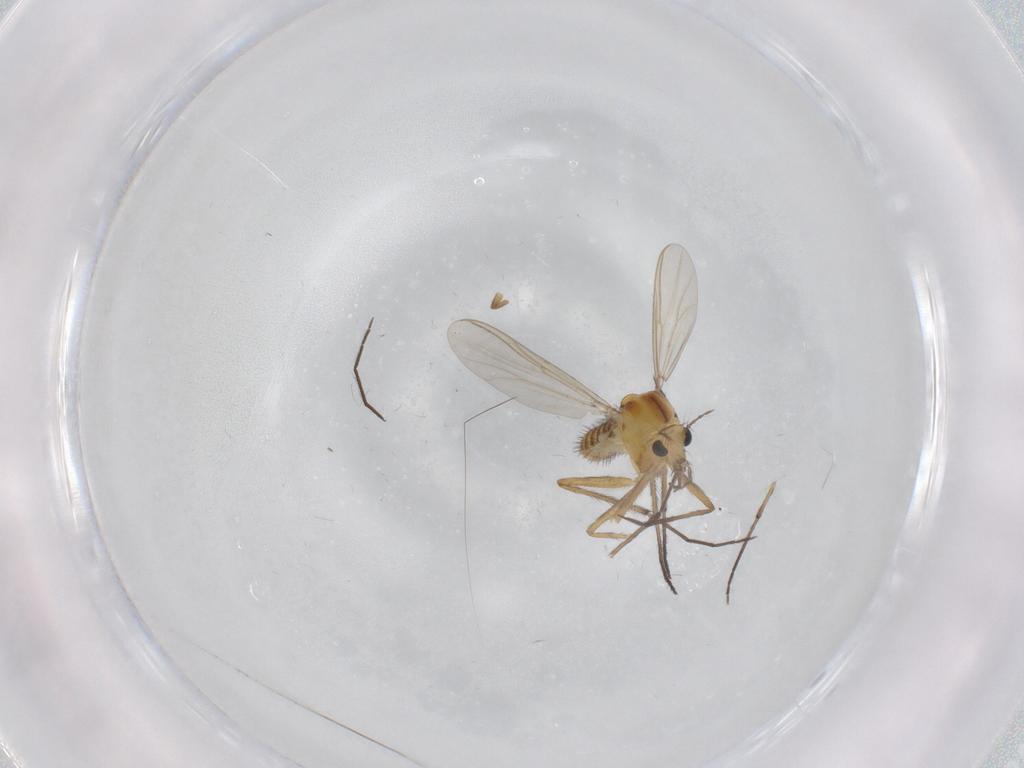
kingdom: Animalia
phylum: Arthropoda
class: Insecta
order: Diptera
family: Chironomidae
